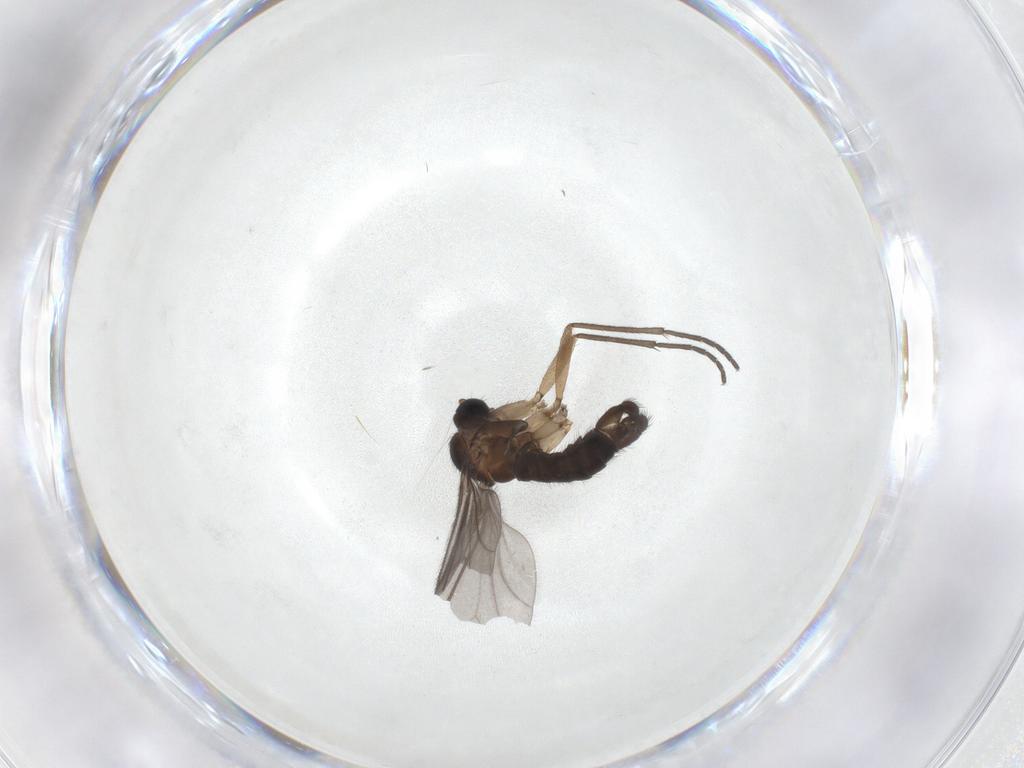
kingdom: Animalia
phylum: Arthropoda
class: Insecta
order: Diptera
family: Sciaridae
